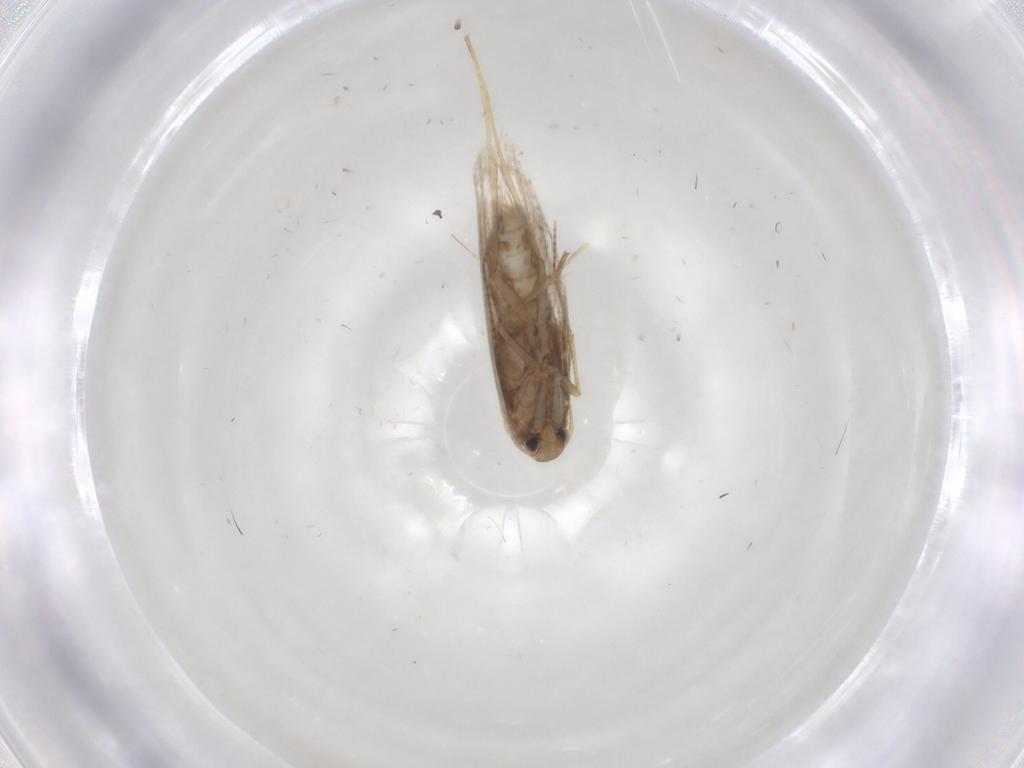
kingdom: Animalia
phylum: Arthropoda
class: Insecta
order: Lepidoptera
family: Gracillariidae
